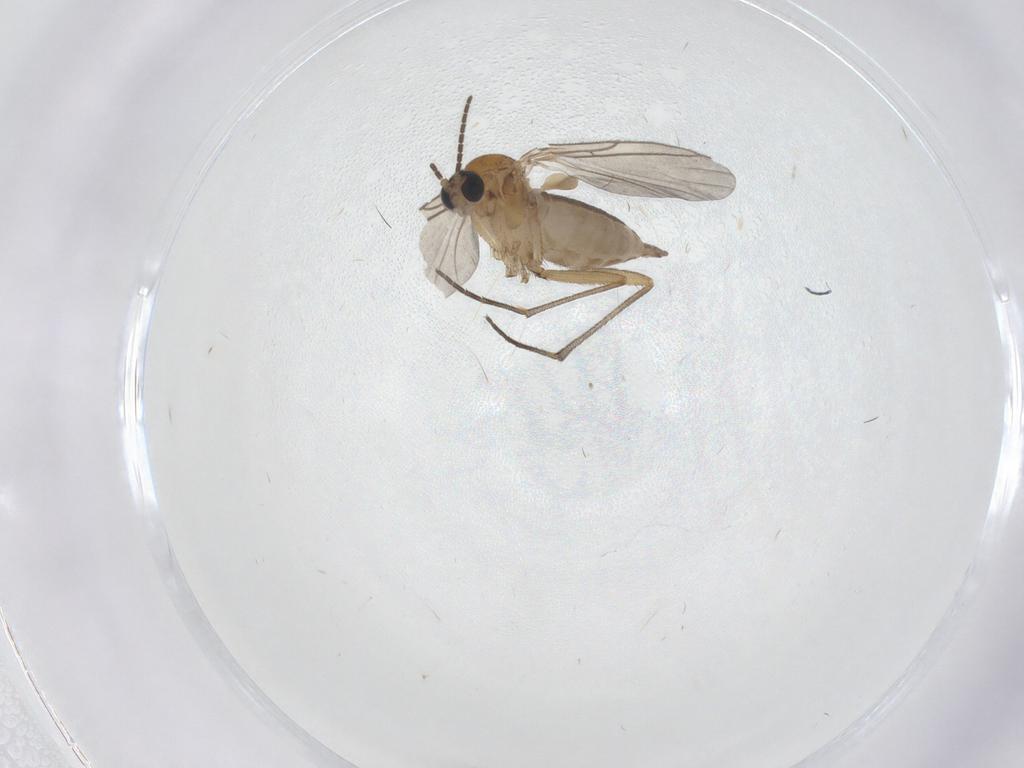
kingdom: Animalia
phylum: Arthropoda
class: Insecta
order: Diptera
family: Sciaridae
